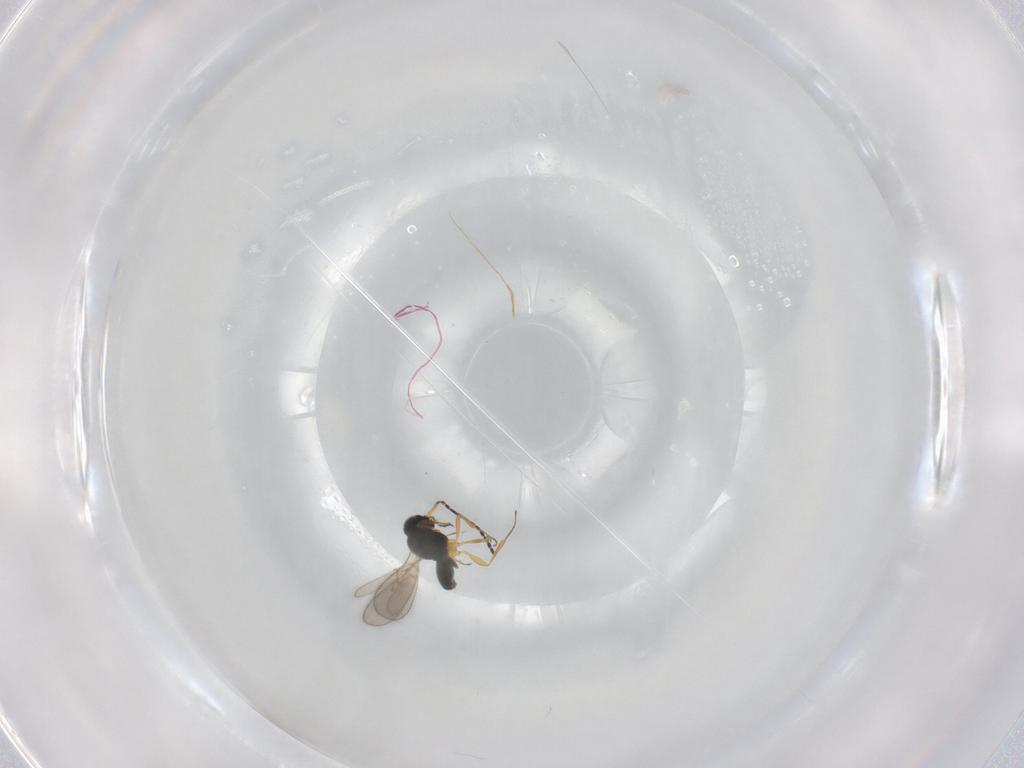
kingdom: Animalia
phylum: Arthropoda
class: Insecta
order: Hymenoptera
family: Scelionidae
